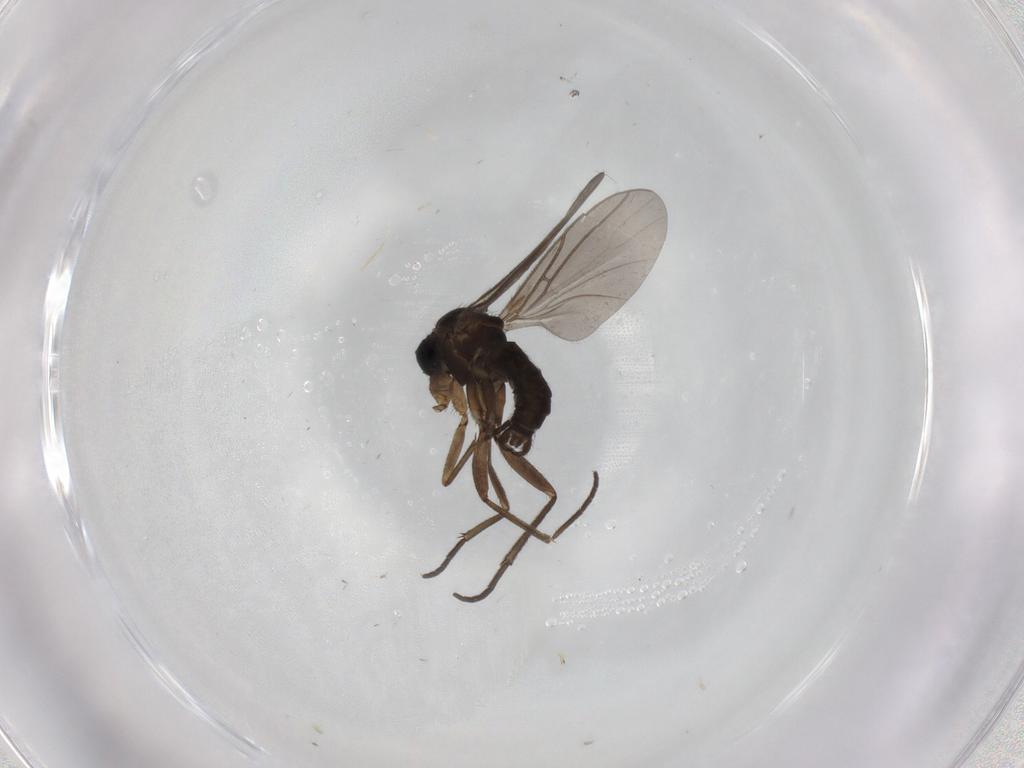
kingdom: Animalia
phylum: Arthropoda
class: Insecta
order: Diptera
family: Sciaridae
